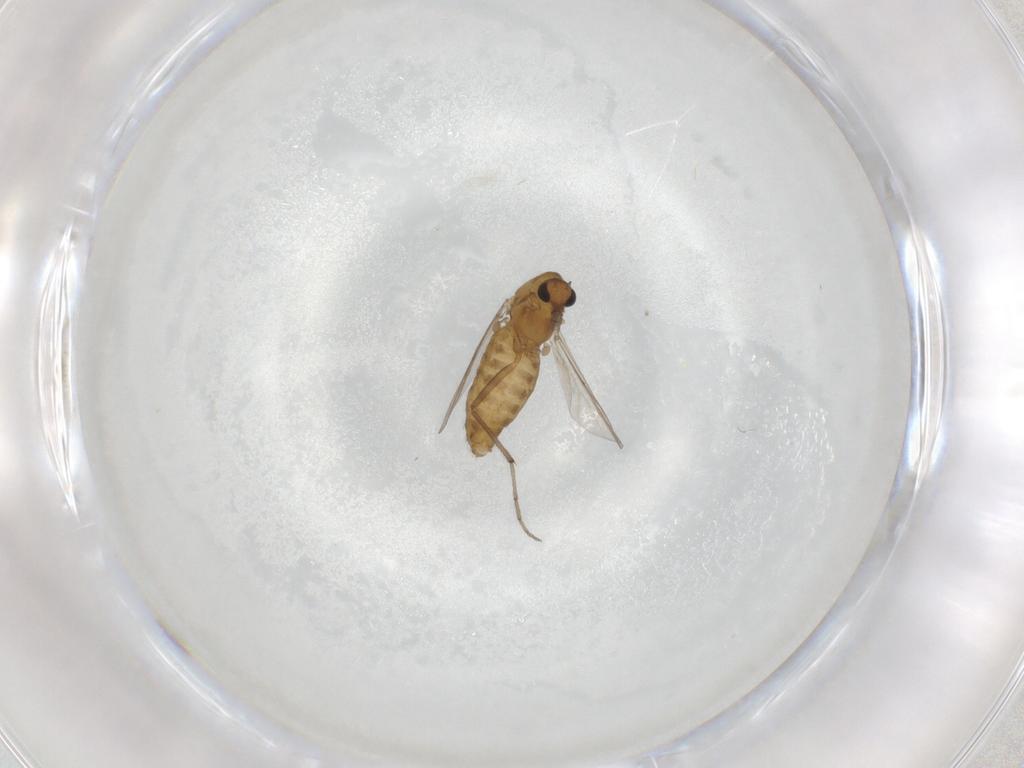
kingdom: Animalia
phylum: Arthropoda
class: Insecta
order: Diptera
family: Chironomidae
